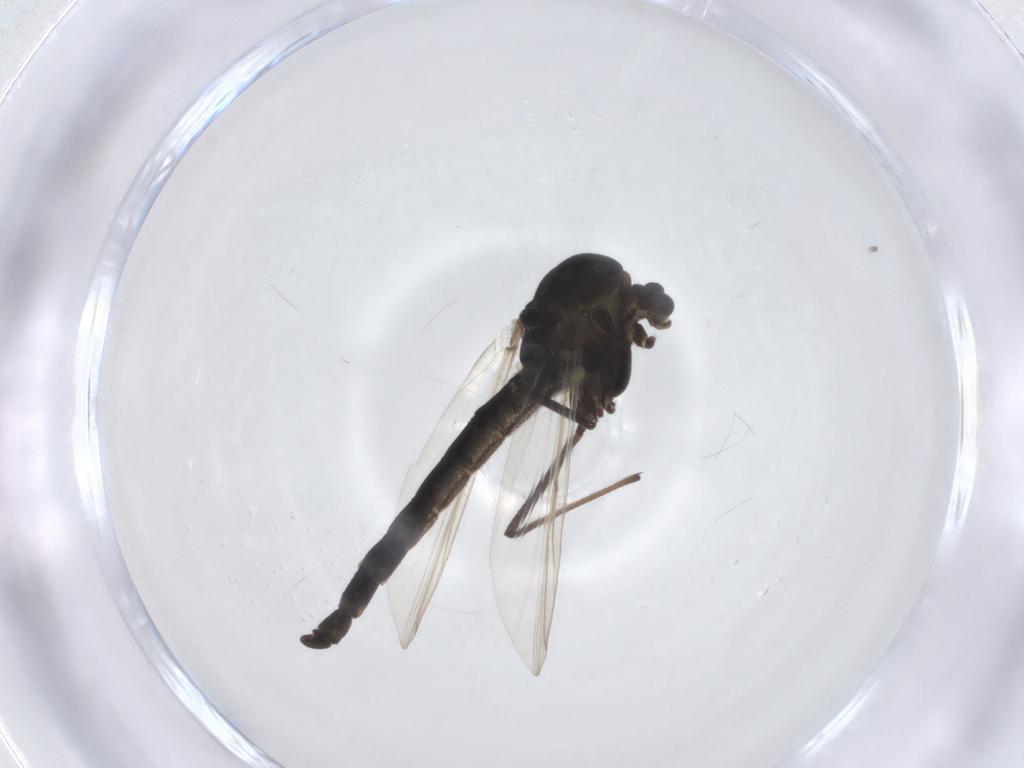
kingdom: Animalia
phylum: Arthropoda
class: Insecta
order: Diptera
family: Chironomidae
